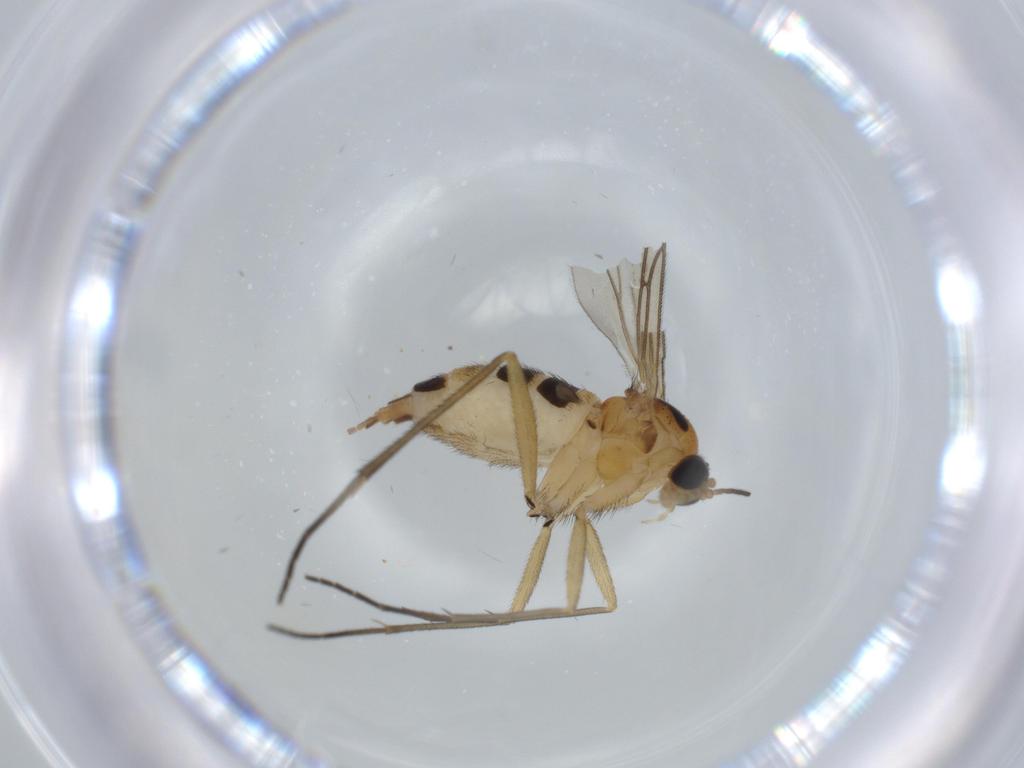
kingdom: Animalia
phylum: Arthropoda
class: Insecta
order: Diptera
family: Sciaridae
